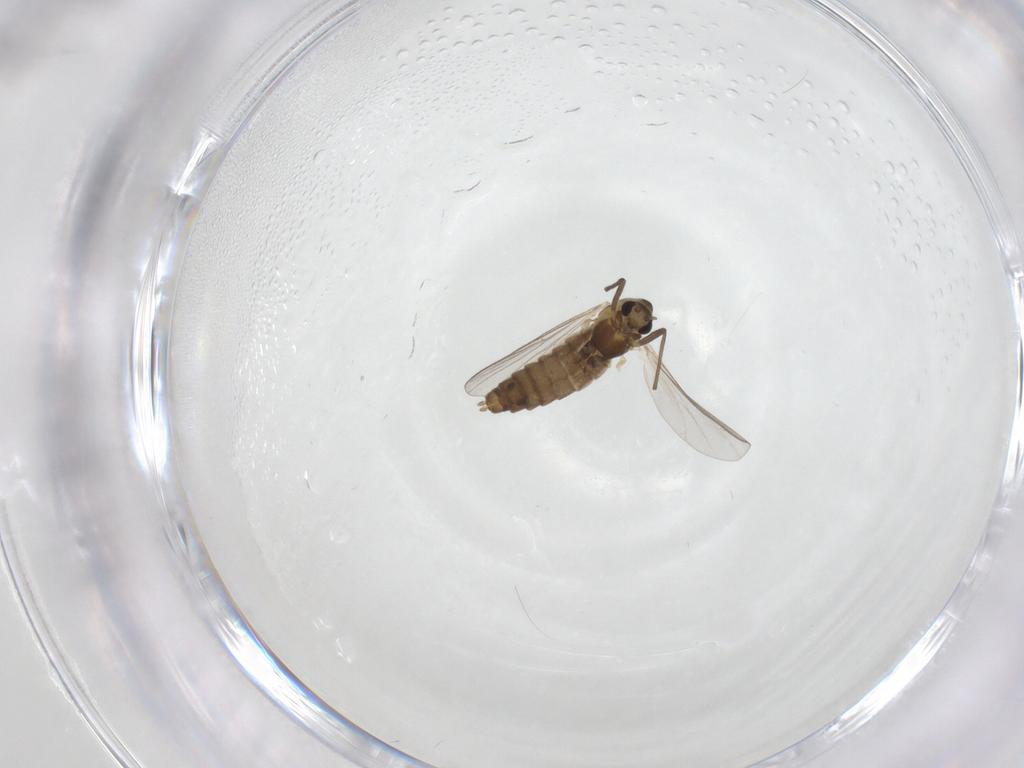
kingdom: Animalia
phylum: Arthropoda
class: Insecta
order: Diptera
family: Chironomidae
